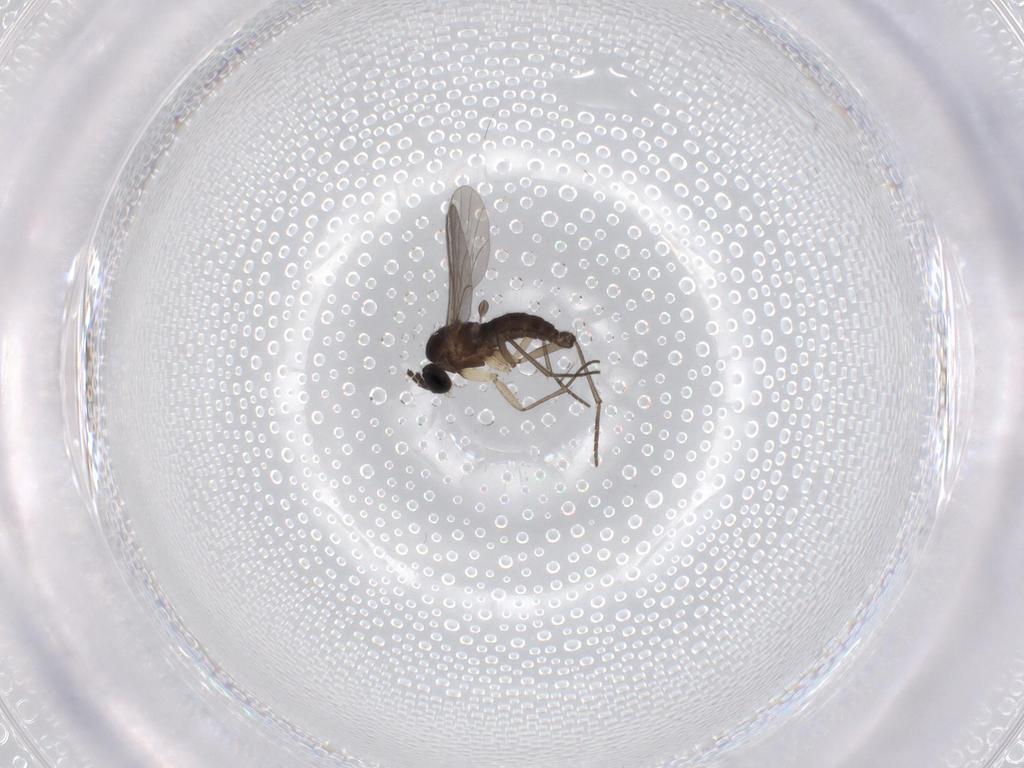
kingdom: Animalia
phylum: Arthropoda
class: Insecta
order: Diptera
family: Sciaridae
